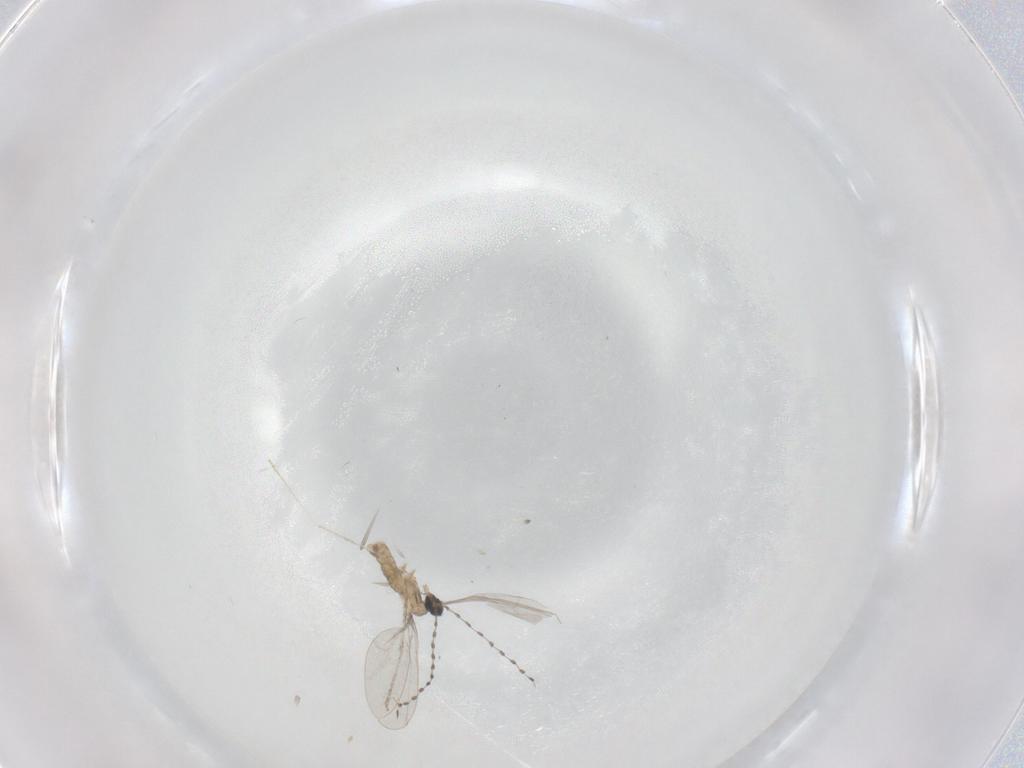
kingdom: Animalia
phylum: Arthropoda
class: Insecta
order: Diptera
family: Cecidomyiidae
